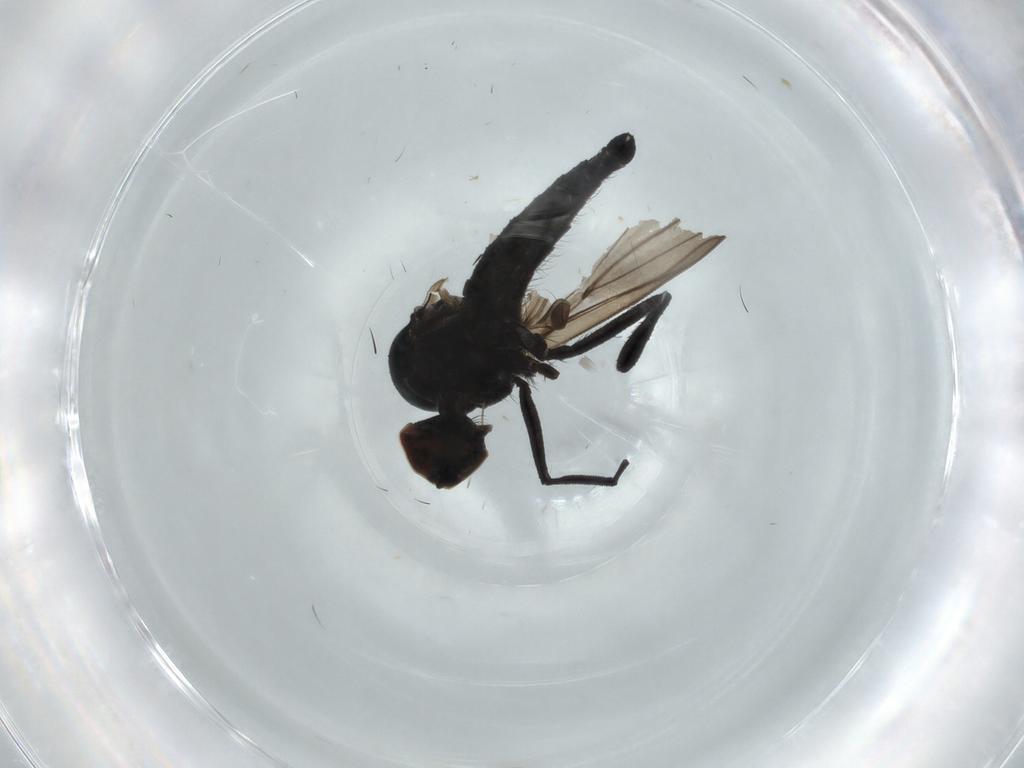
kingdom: Animalia
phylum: Arthropoda
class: Insecta
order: Diptera
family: Hybotidae
